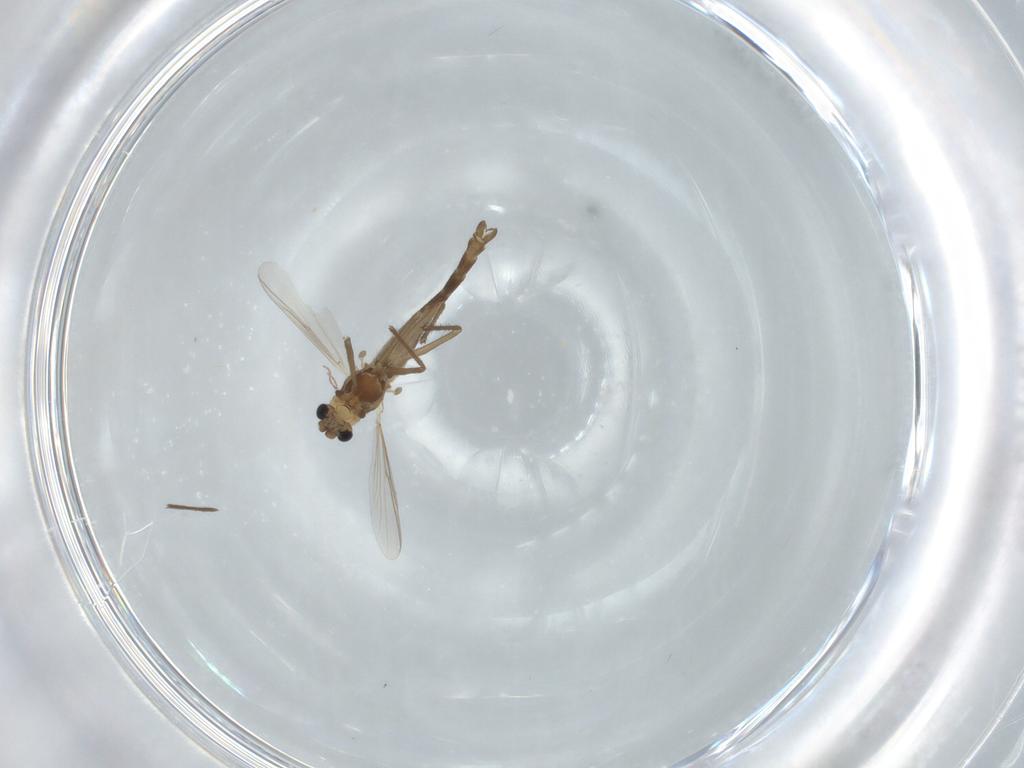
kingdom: Animalia
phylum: Arthropoda
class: Insecta
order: Diptera
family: Chironomidae
